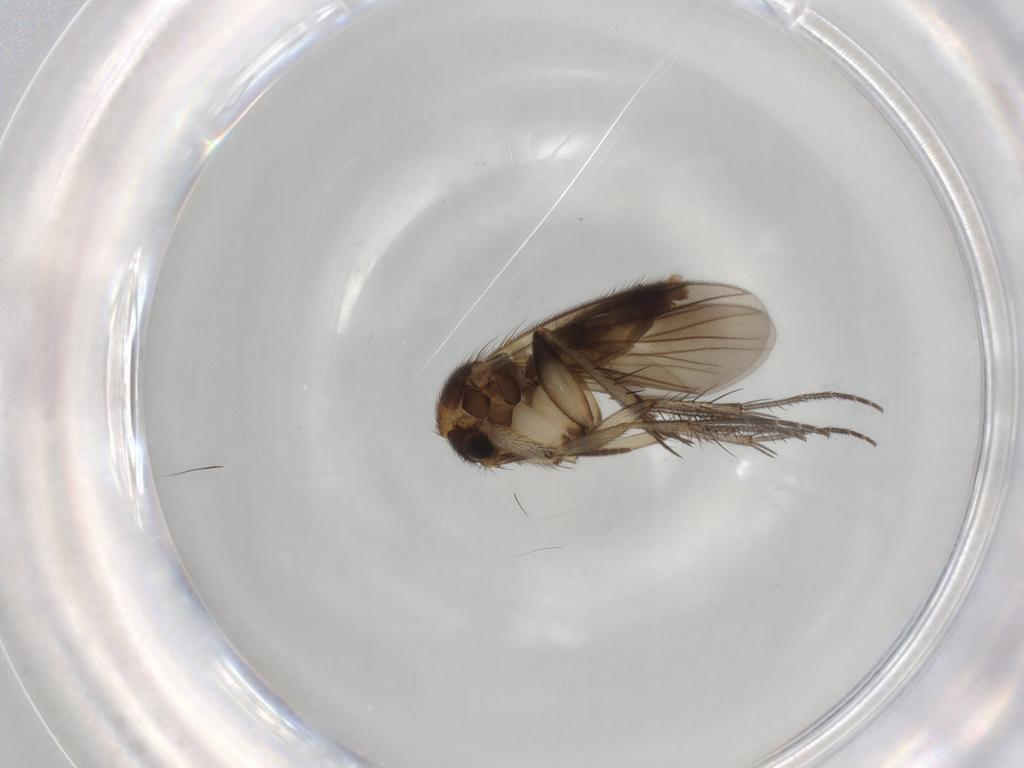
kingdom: Animalia
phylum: Arthropoda
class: Insecta
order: Diptera
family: Mycetophilidae
